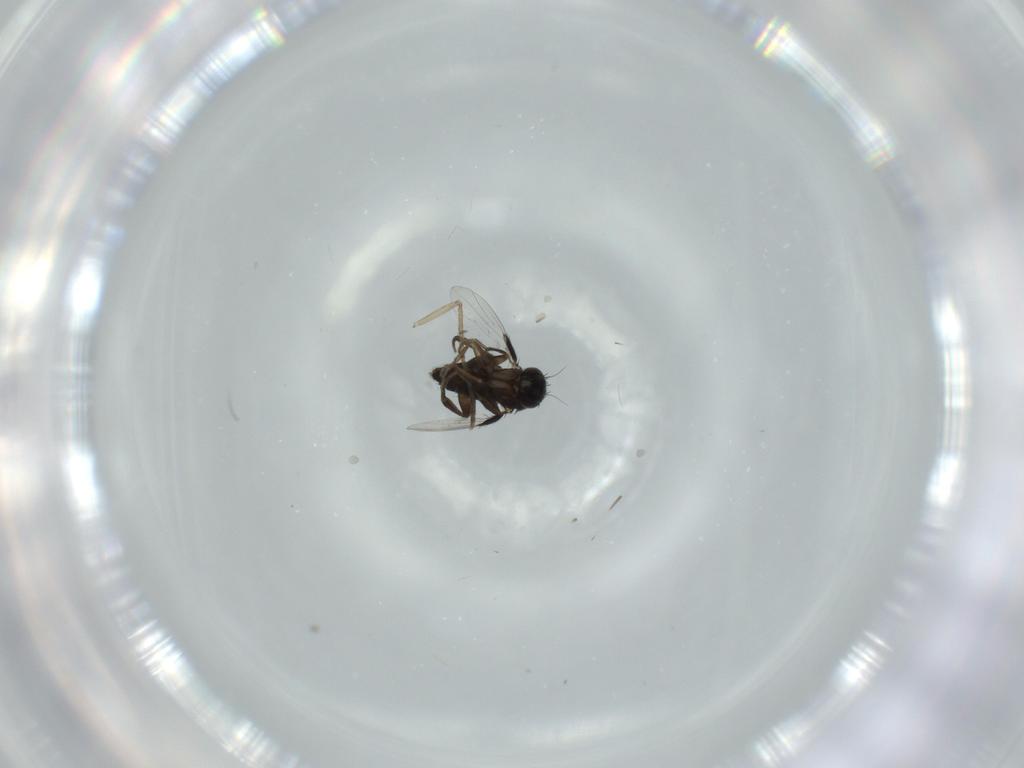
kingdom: Animalia
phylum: Arthropoda
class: Insecta
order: Diptera
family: Phoridae
